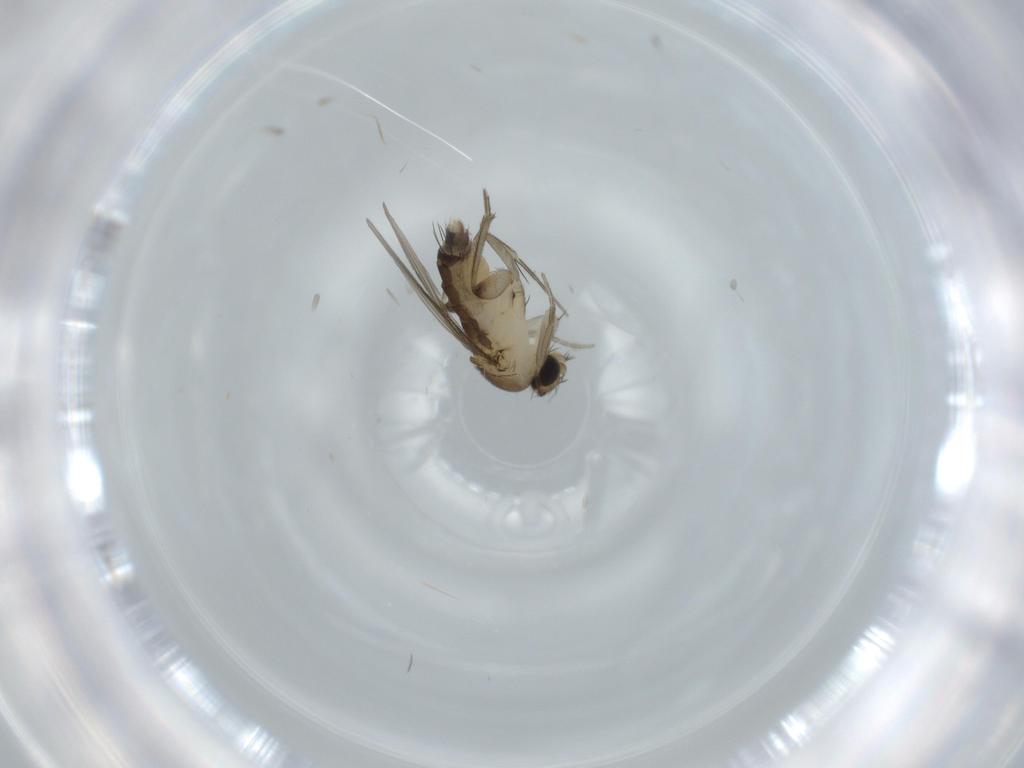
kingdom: Animalia
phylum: Arthropoda
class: Insecta
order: Diptera
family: Phoridae
